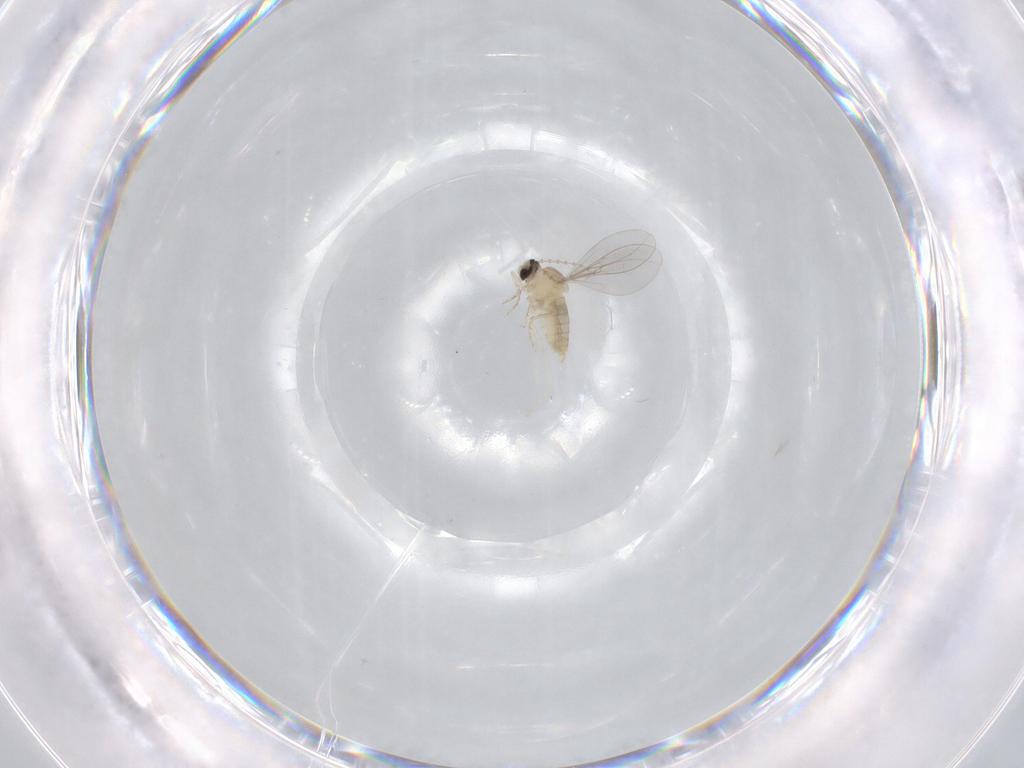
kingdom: Animalia
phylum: Arthropoda
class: Insecta
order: Diptera
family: Cecidomyiidae
